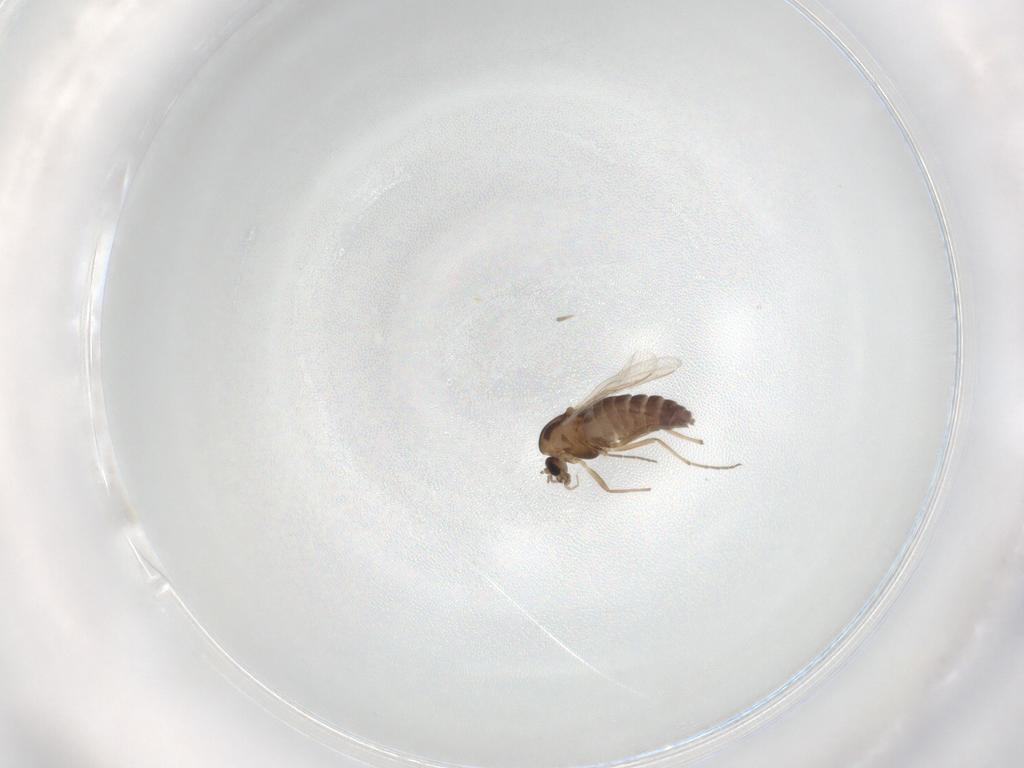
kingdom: Animalia
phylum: Arthropoda
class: Insecta
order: Diptera
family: Chironomidae
